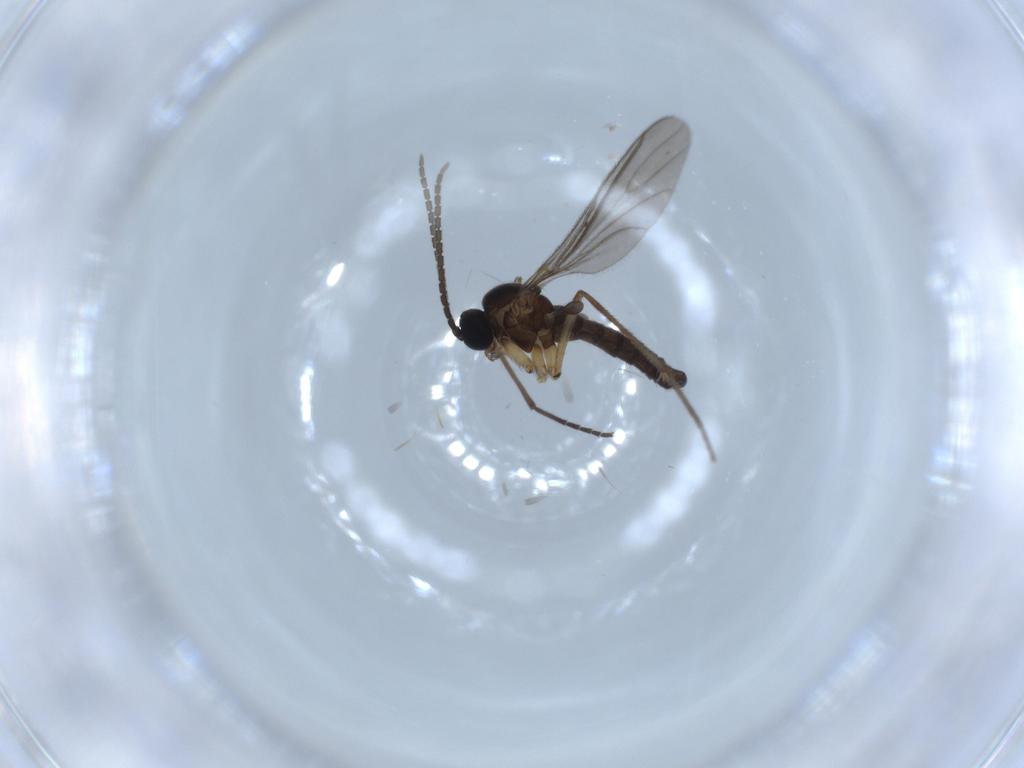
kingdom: Animalia
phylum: Arthropoda
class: Insecta
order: Diptera
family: Sciaridae
